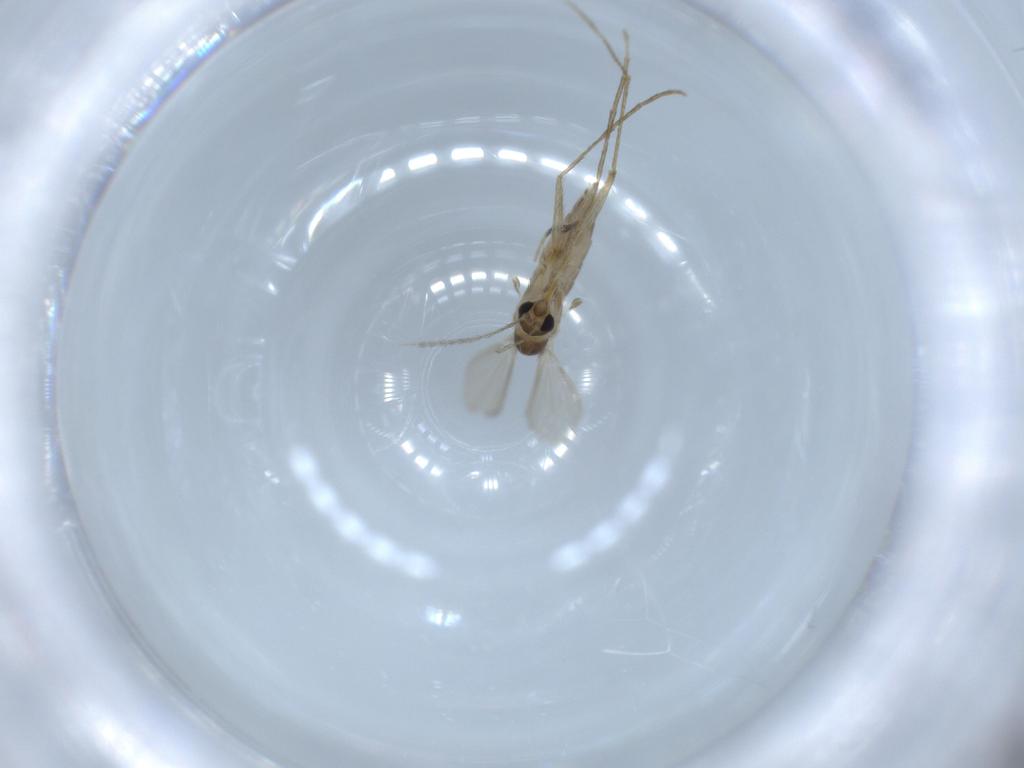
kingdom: Animalia
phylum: Arthropoda
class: Insecta
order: Diptera
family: Psychodidae
